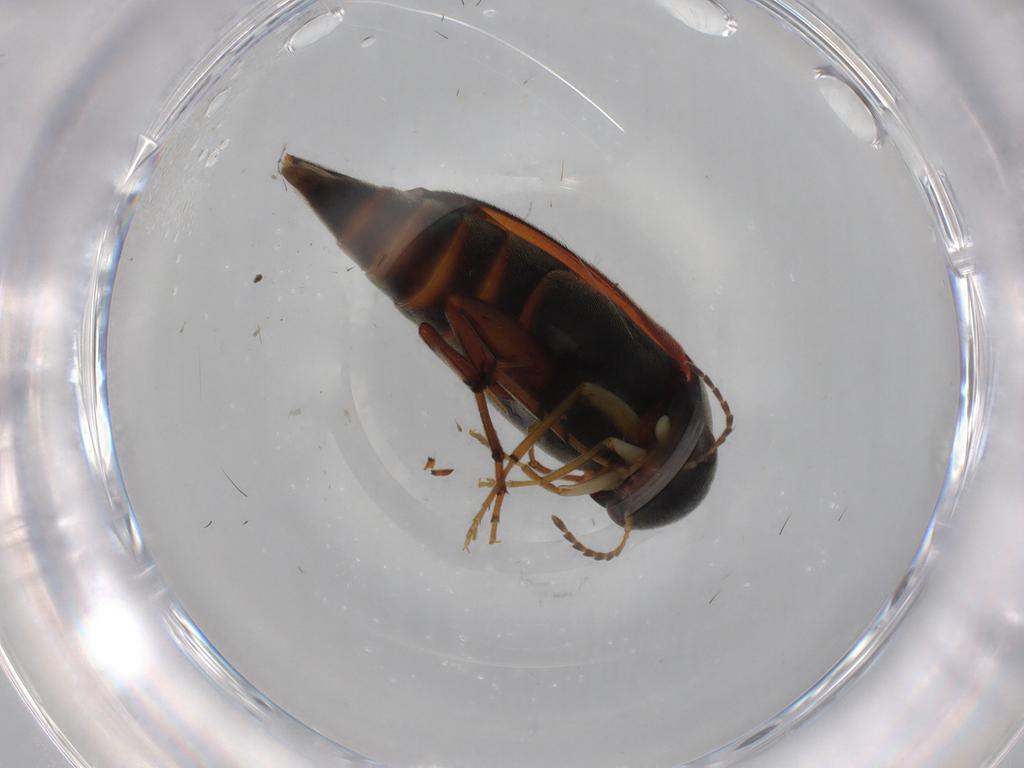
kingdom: Animalia
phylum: Arthropoda
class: Insecta
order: Coleoptera
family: Mordellidae
